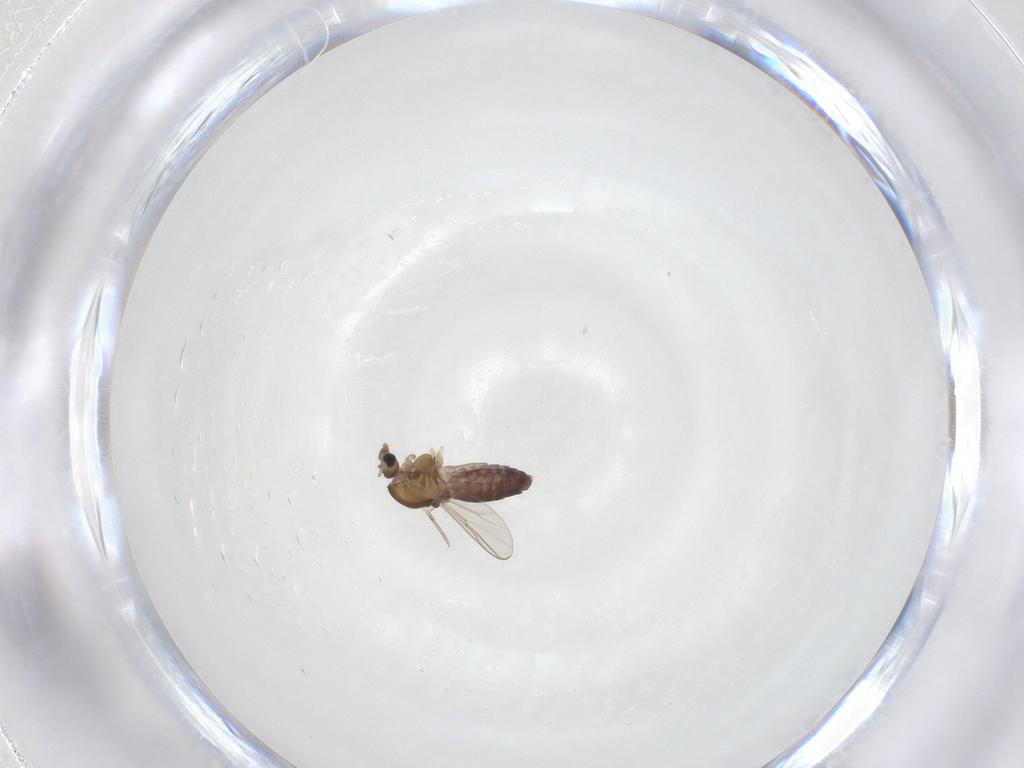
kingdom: Animalia
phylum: Arthropoda
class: Insecta
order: Diptera
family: Chironomidae
